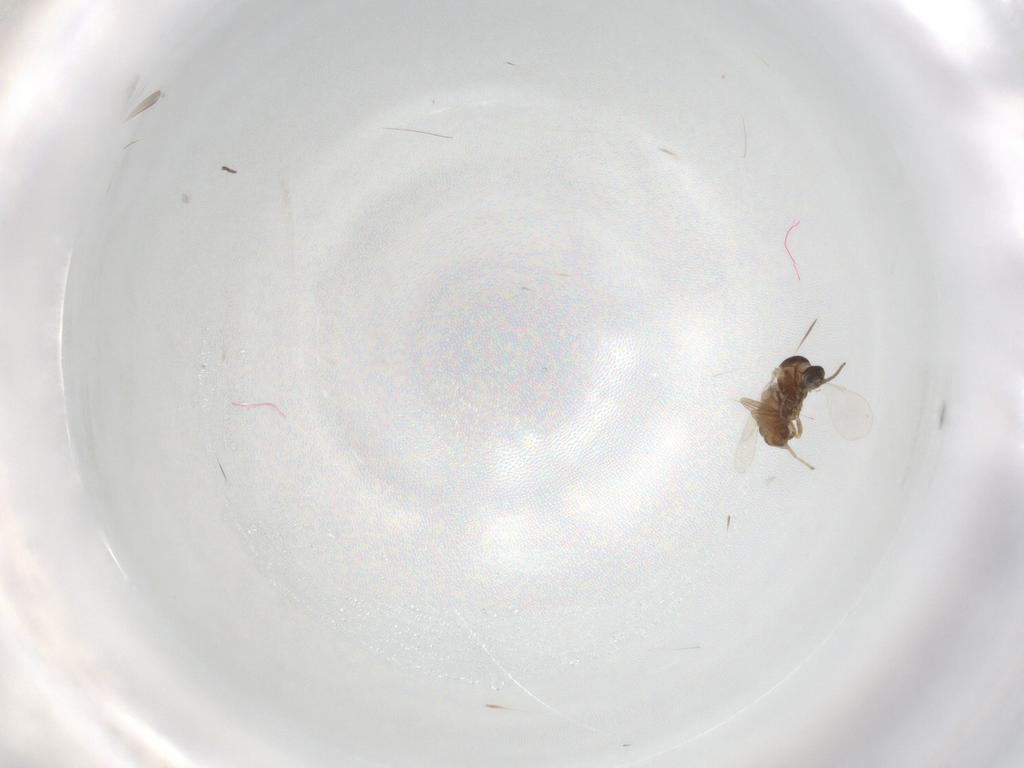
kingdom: Animalia
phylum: Arthropoda
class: Insecta
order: Diptera
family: Cecidomyiidae
